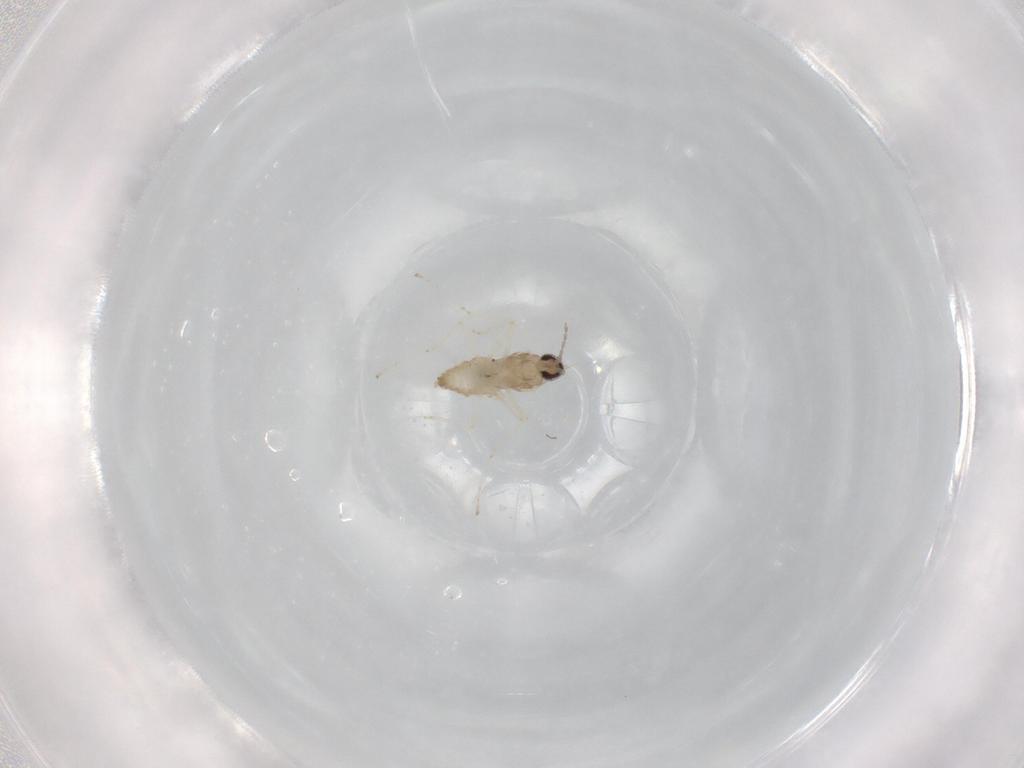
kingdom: Animalia
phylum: Arthropoda
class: Insecta
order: Diptera
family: Cecidomyiidae
